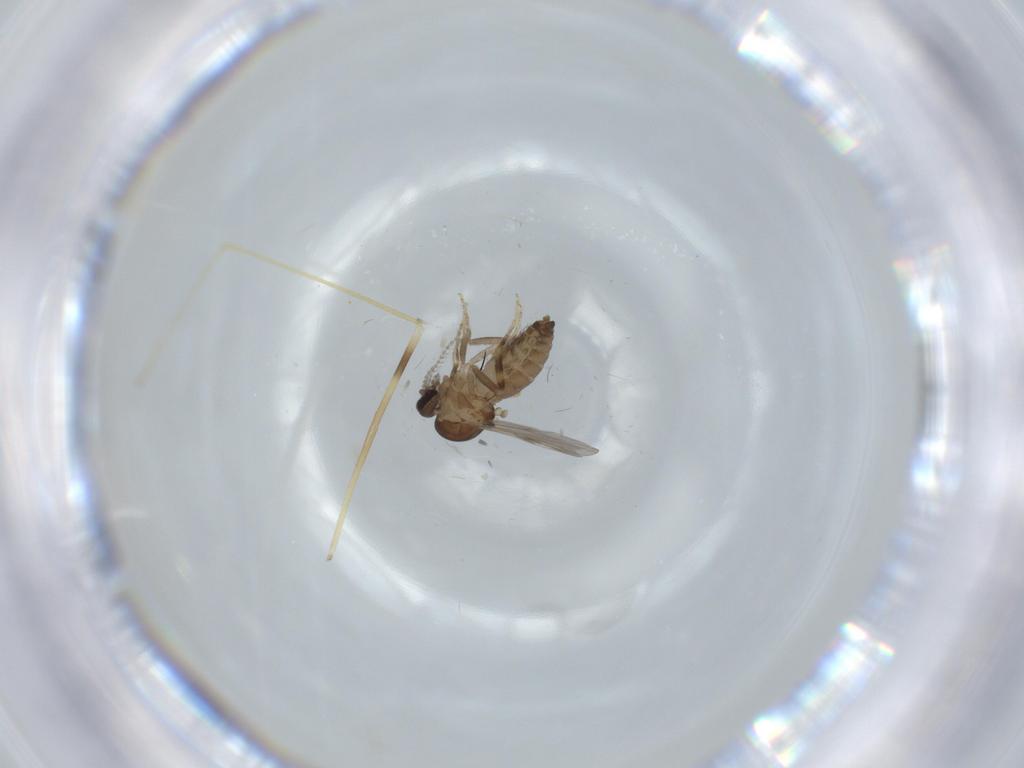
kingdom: Animalia
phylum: Arthropoda
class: Insecta
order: Diptera
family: Ceratopogonidae
